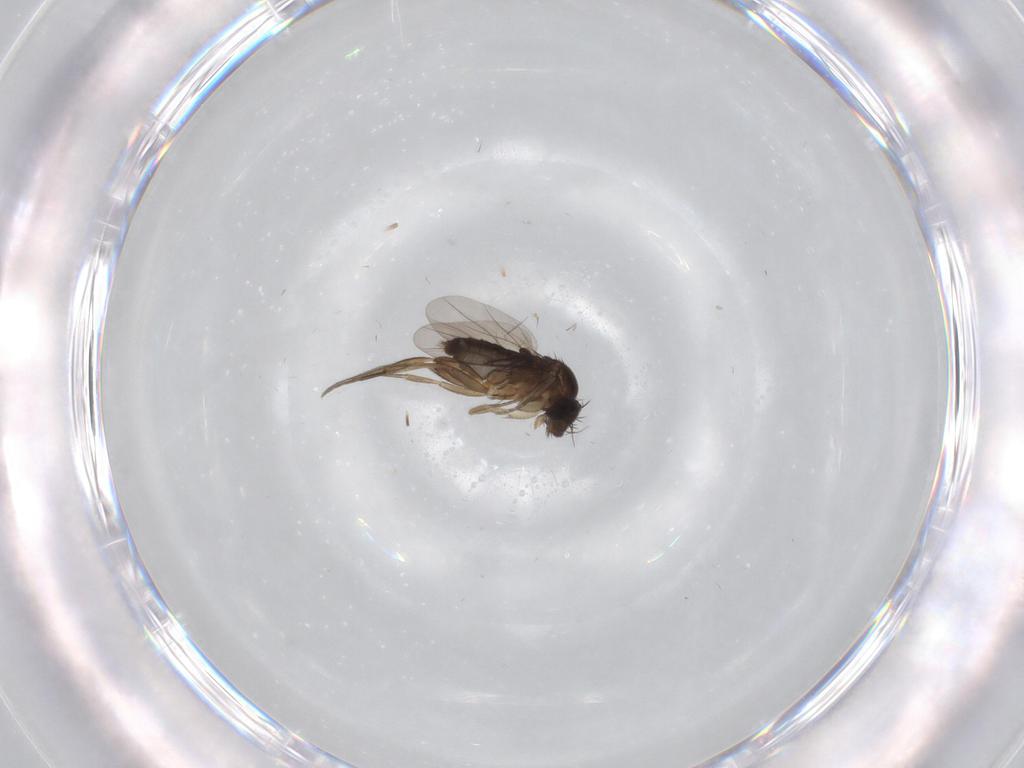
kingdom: Animalia
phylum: Arthropoda
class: Insecta
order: Diptera
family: Phoridae
